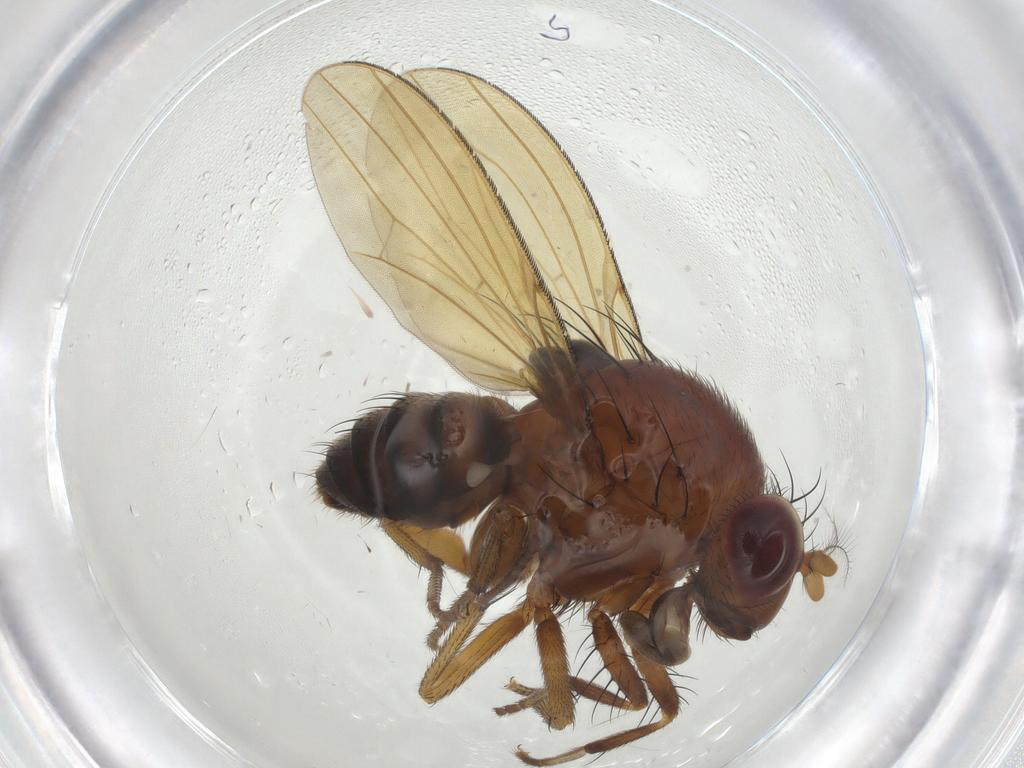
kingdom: Animalia
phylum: Arthropoda
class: Insecta
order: Diptera
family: Cecidomyiidae
